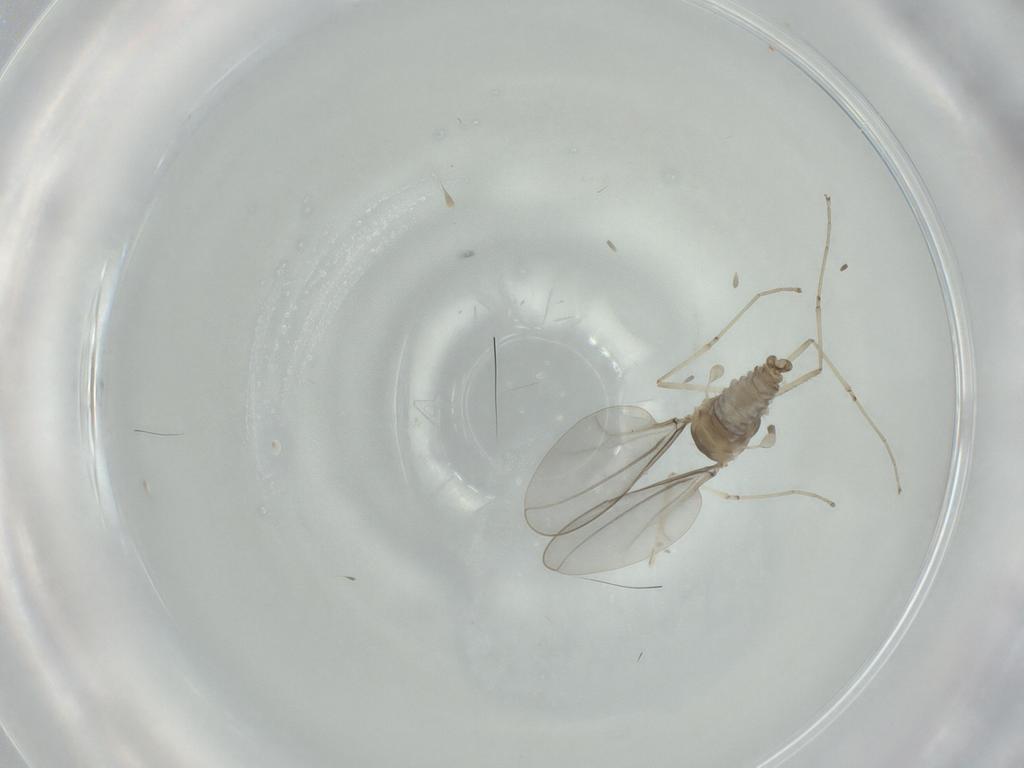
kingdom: Animalia
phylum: Arthropoda
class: Insecta
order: Diptera
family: Cecidomyiidae
